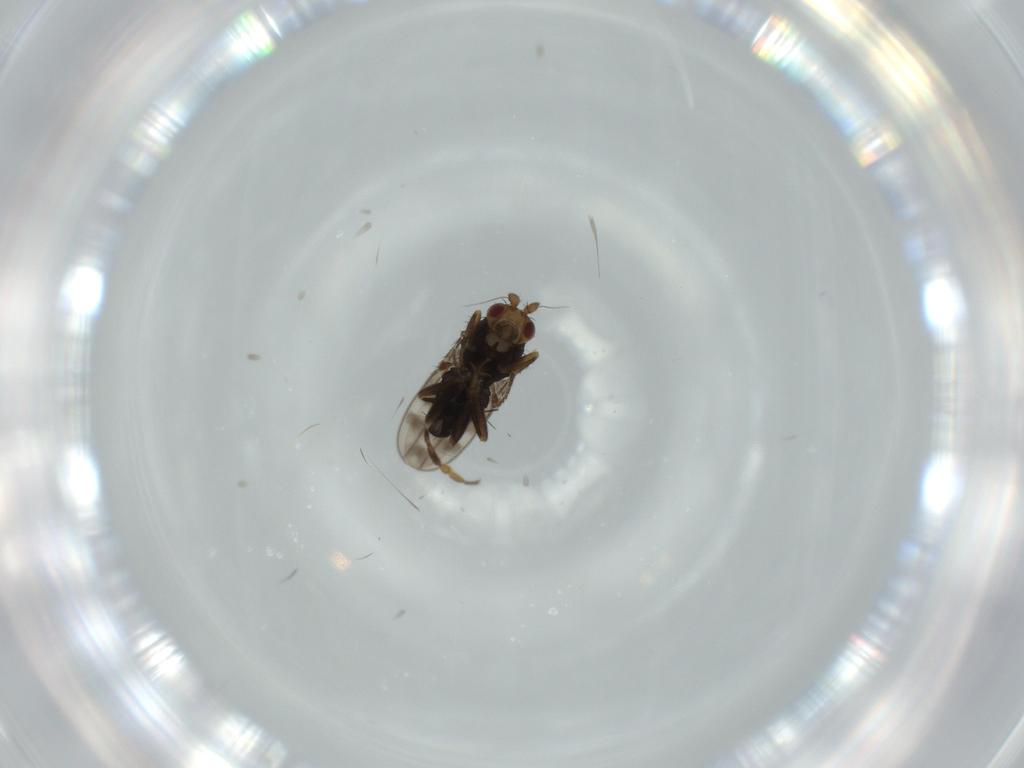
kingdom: Animalia
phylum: Arthropoda
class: Insecta
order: Diptera
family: Sphaeroceridae
